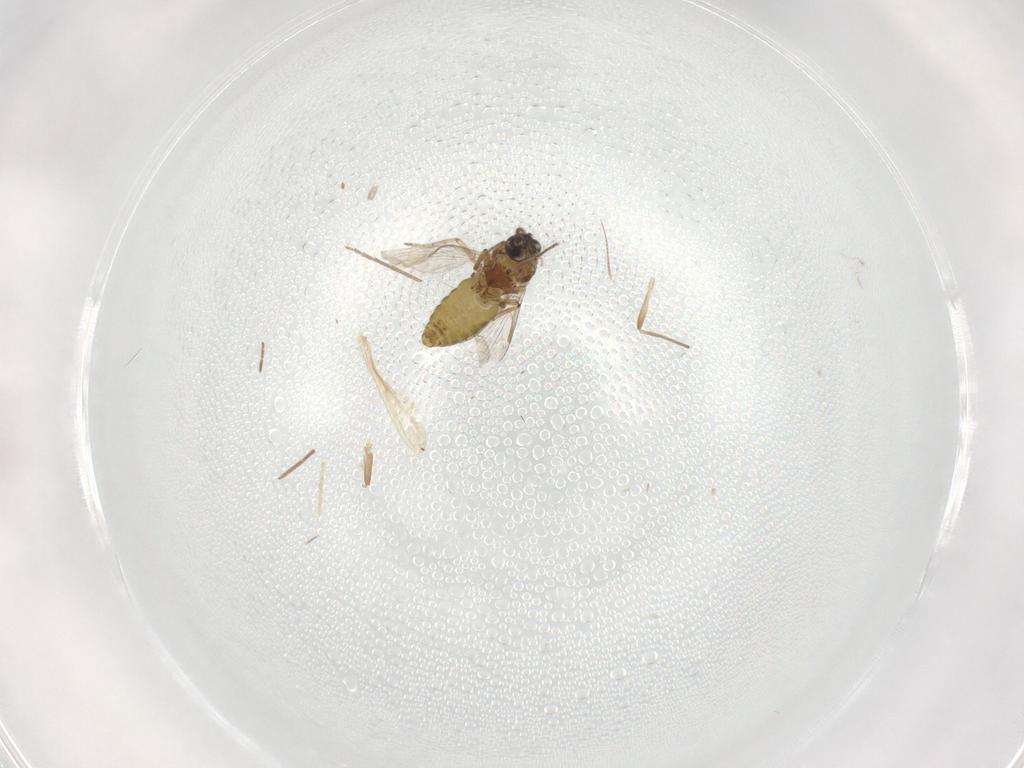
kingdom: Animalia
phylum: Arthropoda
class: Insecta
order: Diptera
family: Ceratopogonidae
